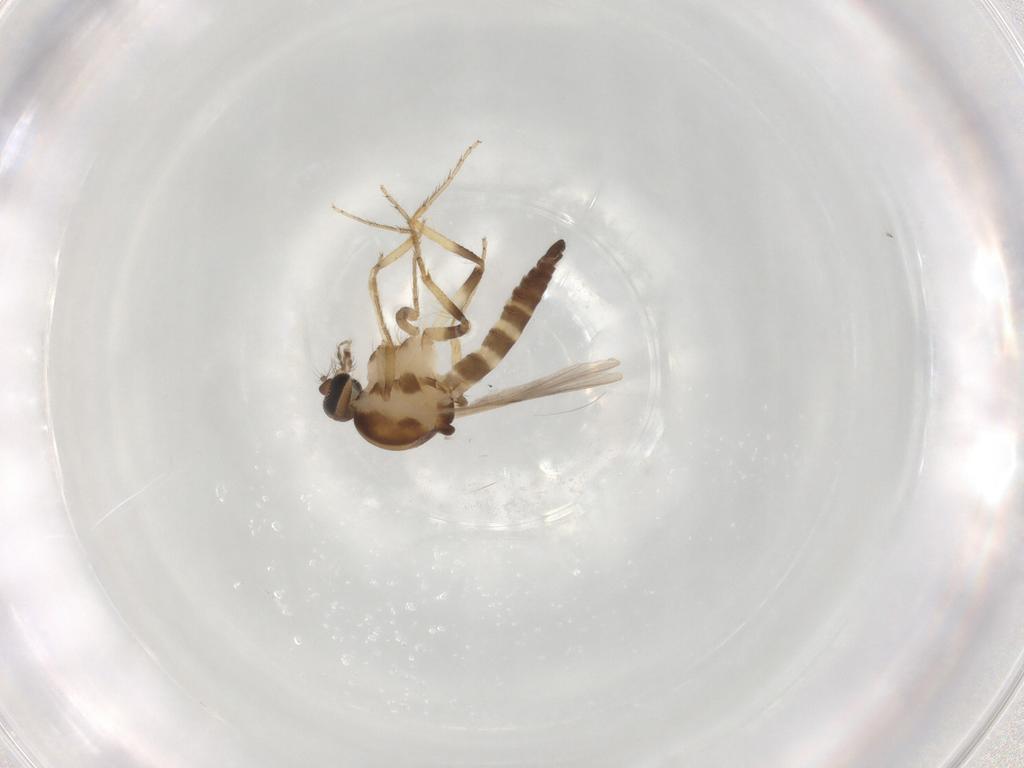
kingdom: Animalia
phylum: Arthropoda
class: Insecta
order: Diptera
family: Ceratopogonidae
